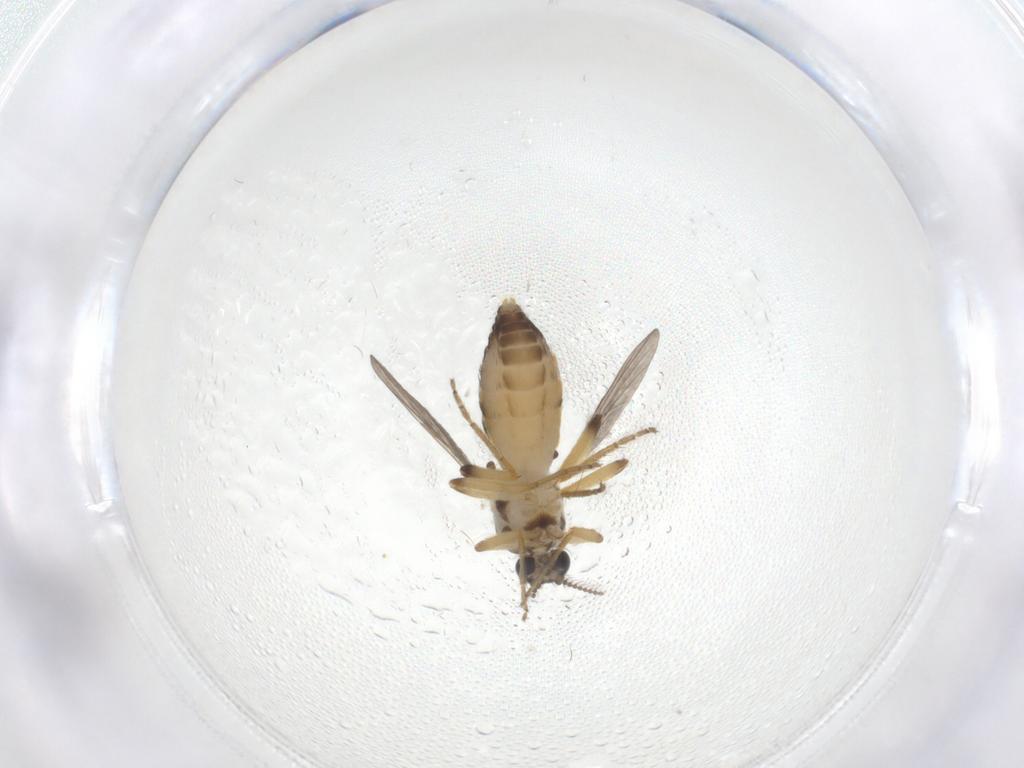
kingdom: Animalia
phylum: Arthropoda
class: Insecta
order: Diptera
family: Ceratopogonidae
